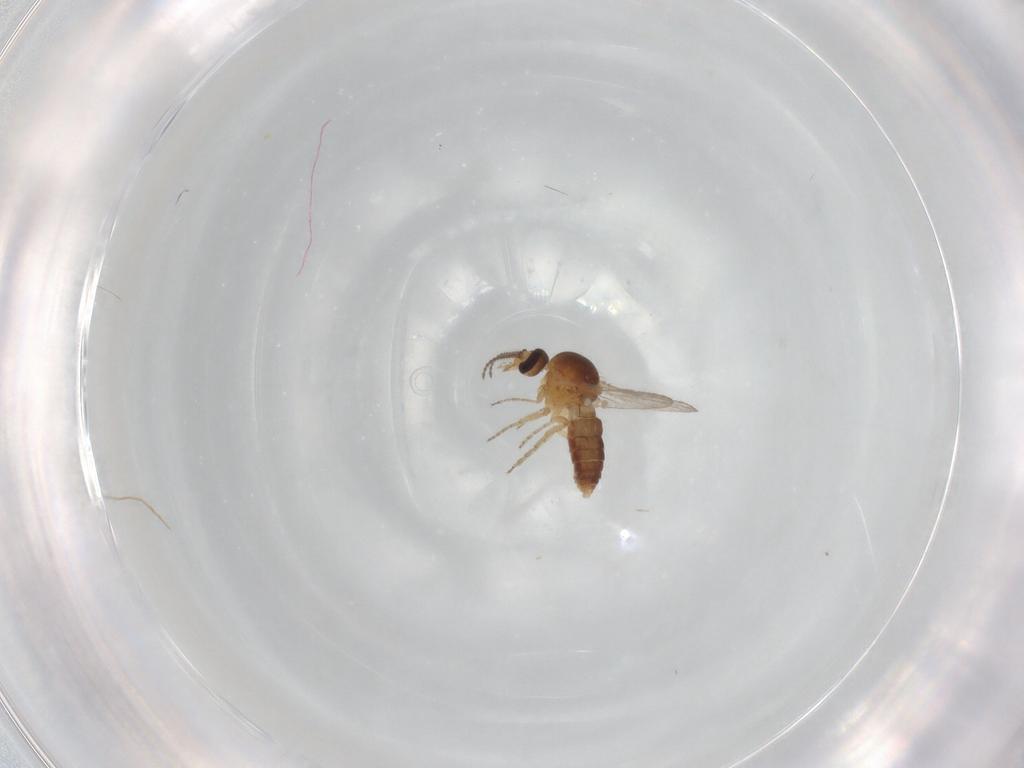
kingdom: Animalia
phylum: Arthropoda
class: Insecta
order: Diptera
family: Ceratopogonidae
